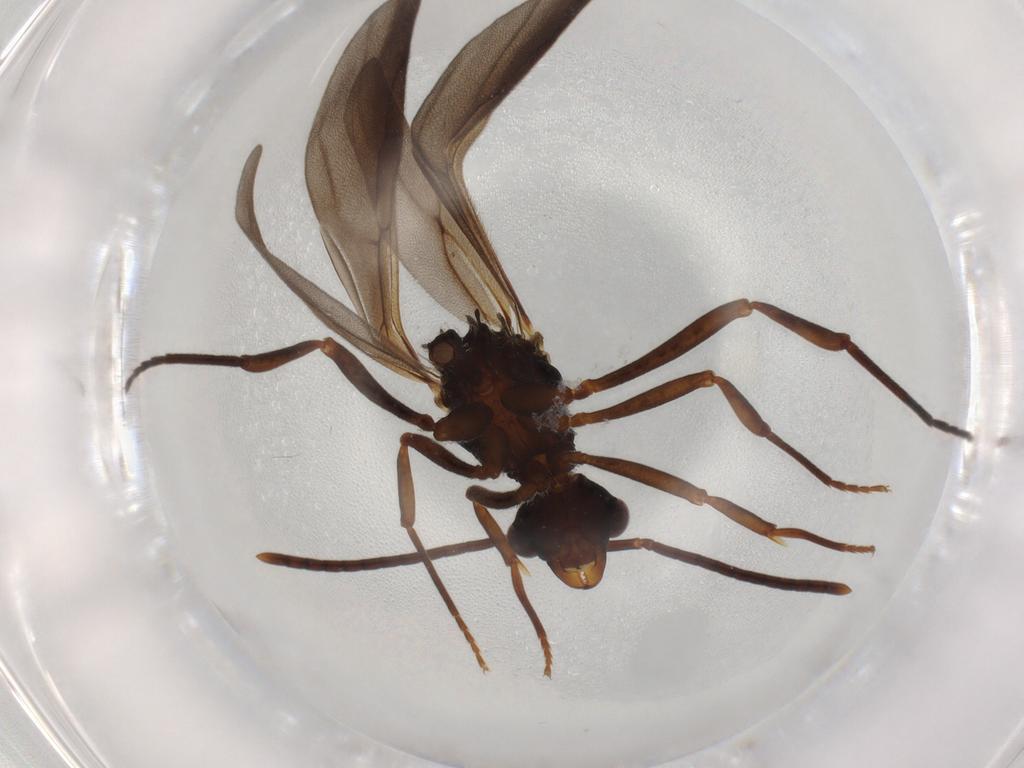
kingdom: Animalia
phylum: Arthropoda
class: Insecta
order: Hymenoptera
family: Formicidae
